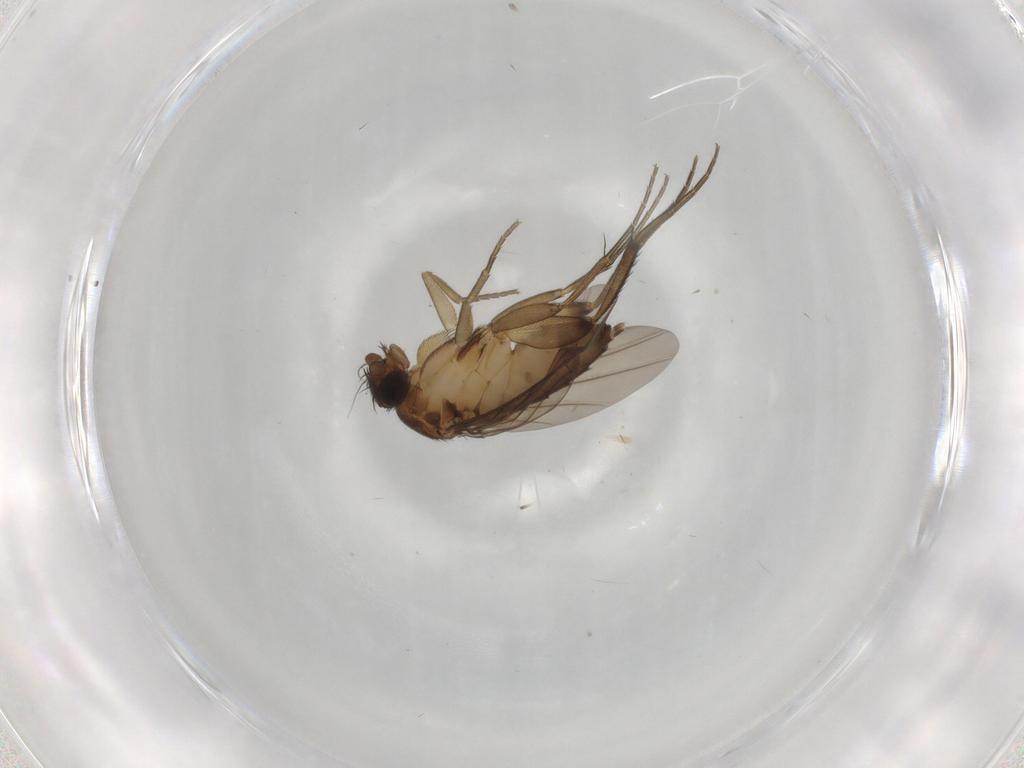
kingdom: Animalia
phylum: Arthropoda
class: Insecta
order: Diptera
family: Phoridae
